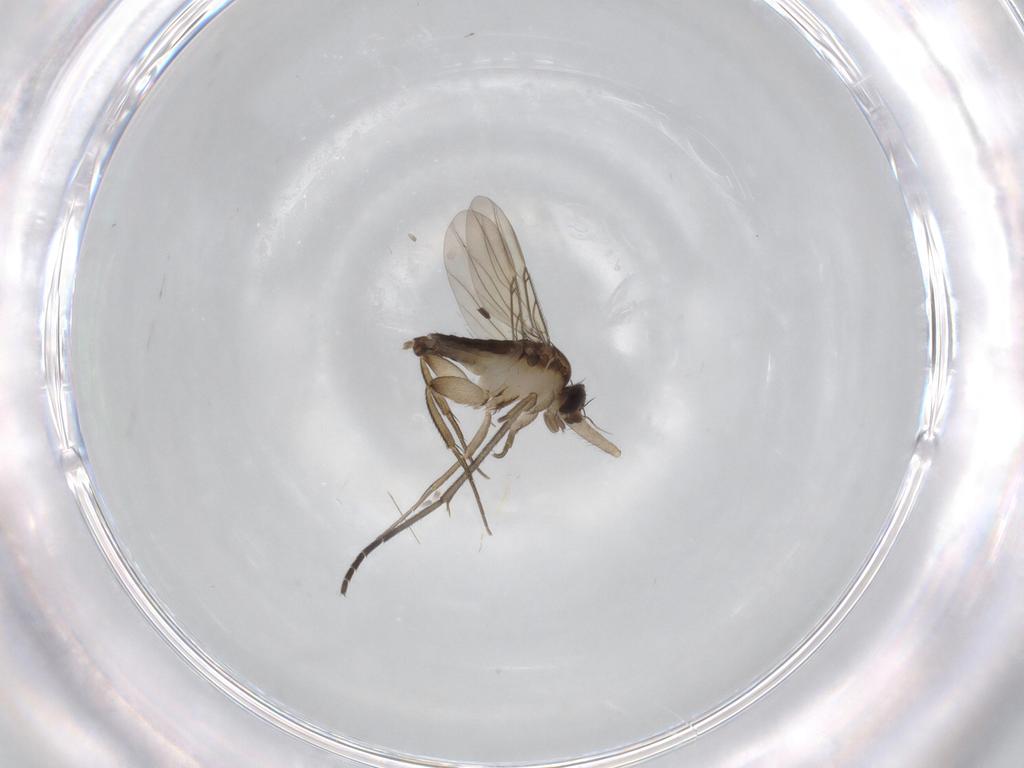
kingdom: Animalia
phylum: Arthropoda
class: Insecta
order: Diptera
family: Phoridae
